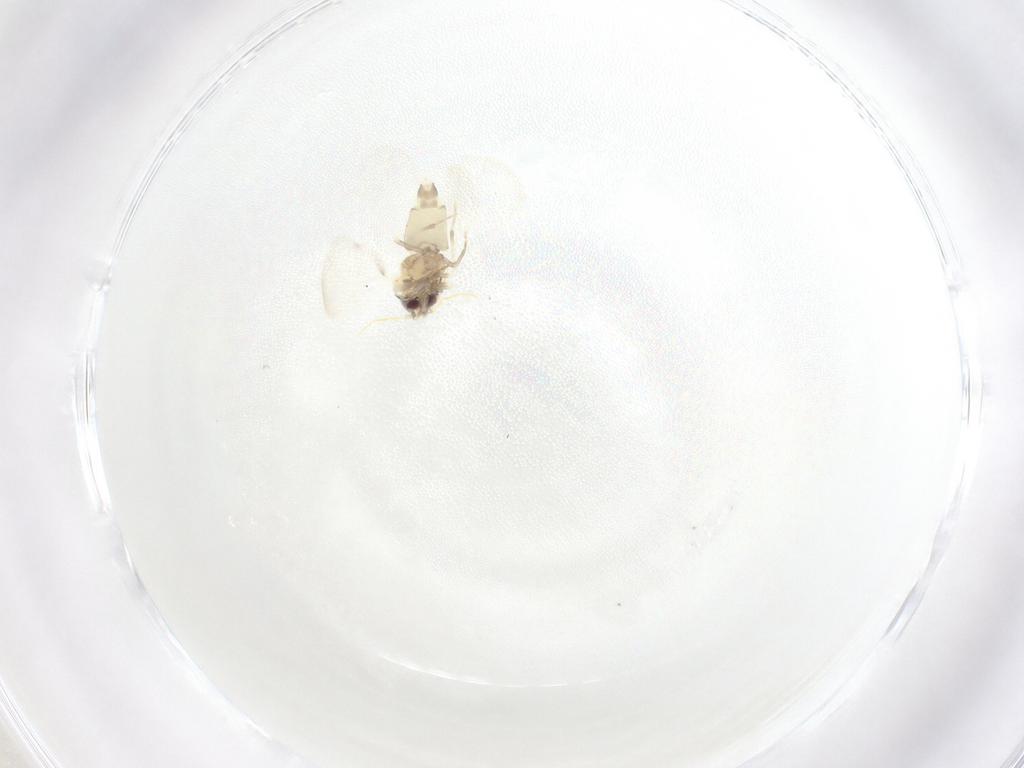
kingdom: Animalia
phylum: Arthropoda
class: Insecta
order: Hemiptera
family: Aleyrodidae
